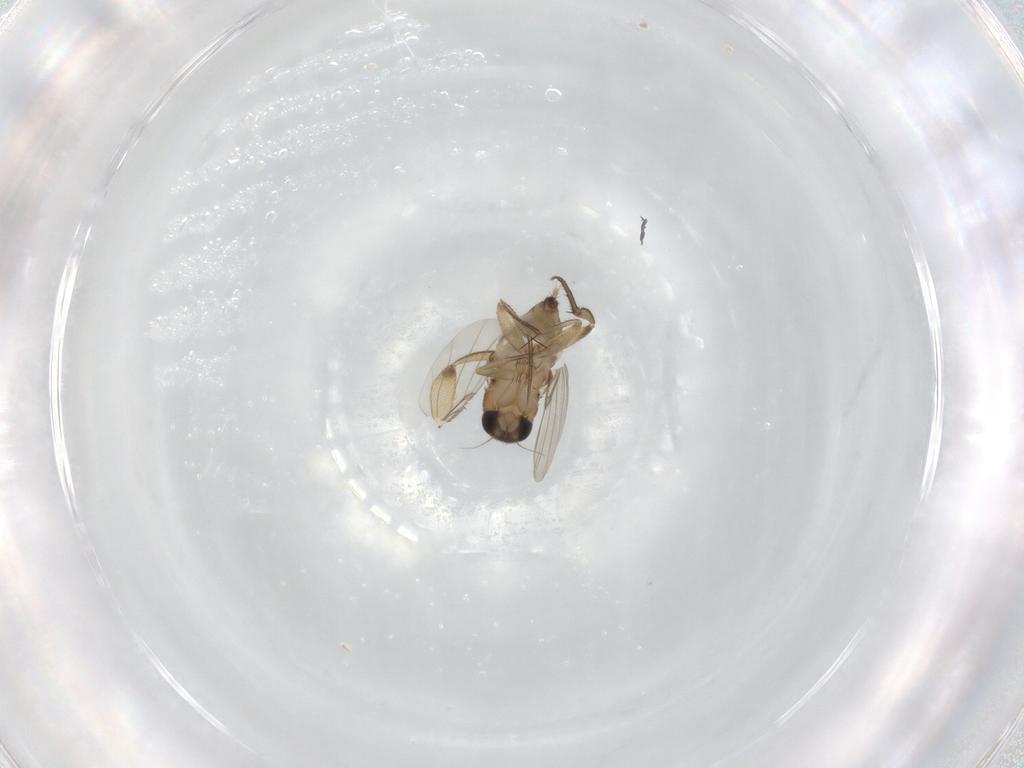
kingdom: Animalia
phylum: Arthropoda
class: Insecta
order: Diptera
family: Phoridae
